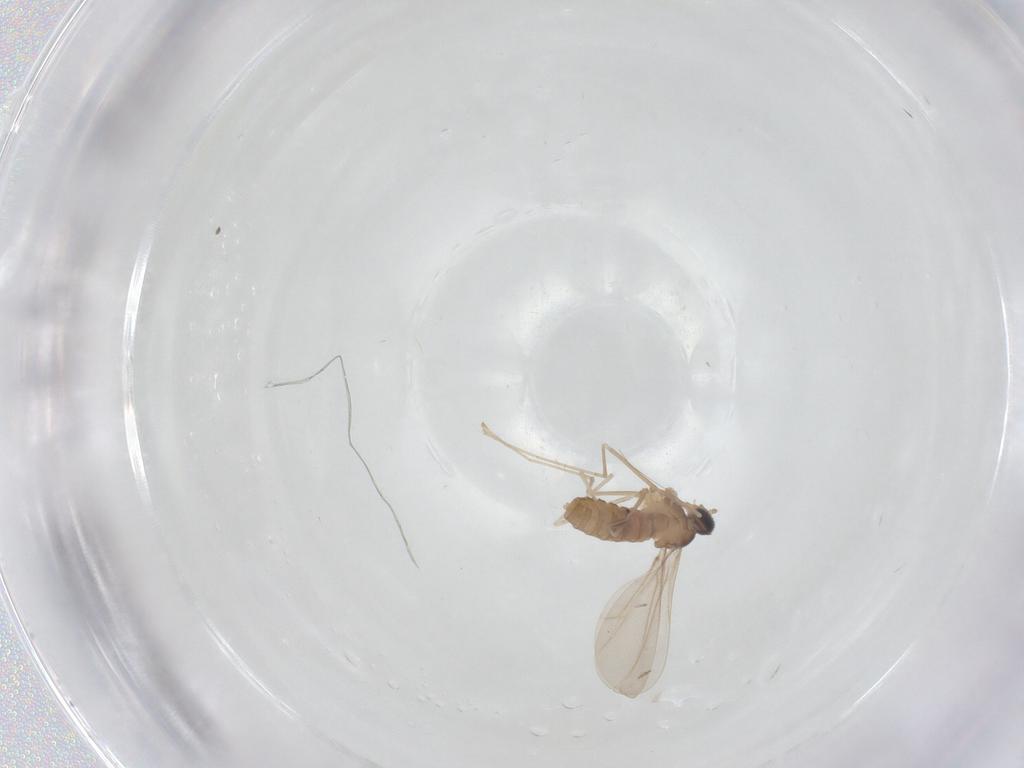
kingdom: Animalia
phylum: Arthropoda
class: Insecta
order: Diptera
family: Cecidomyiidae
